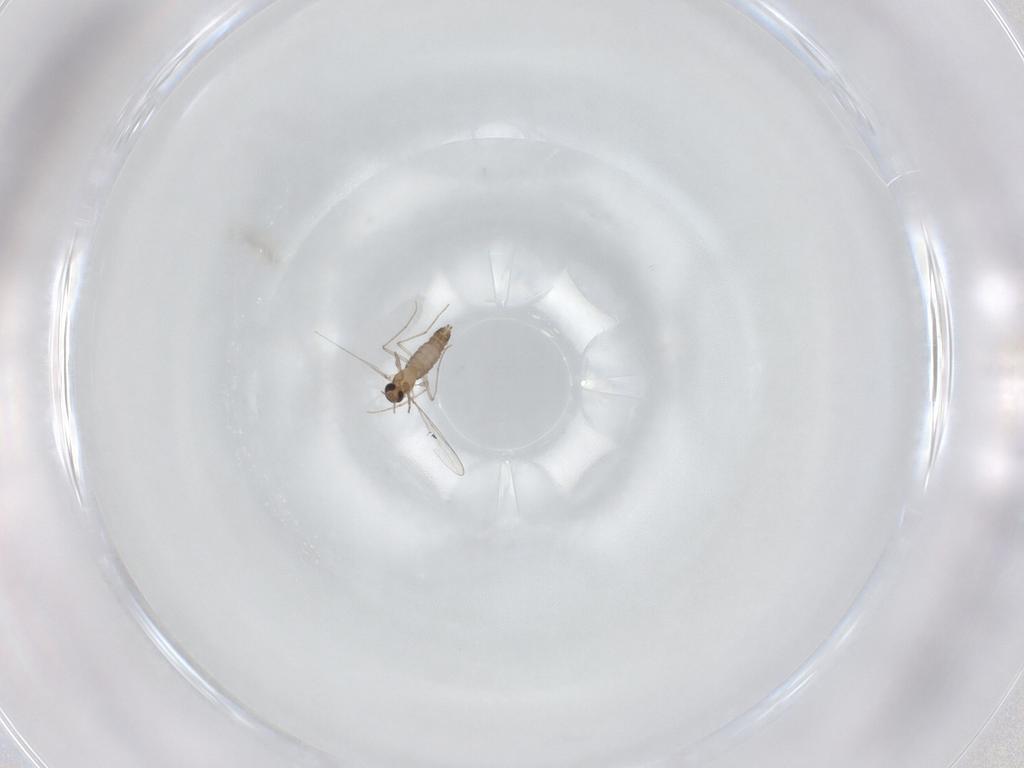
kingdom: Animalia
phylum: Arthropoda
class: Insecta
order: Diptera
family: Chironomidae
